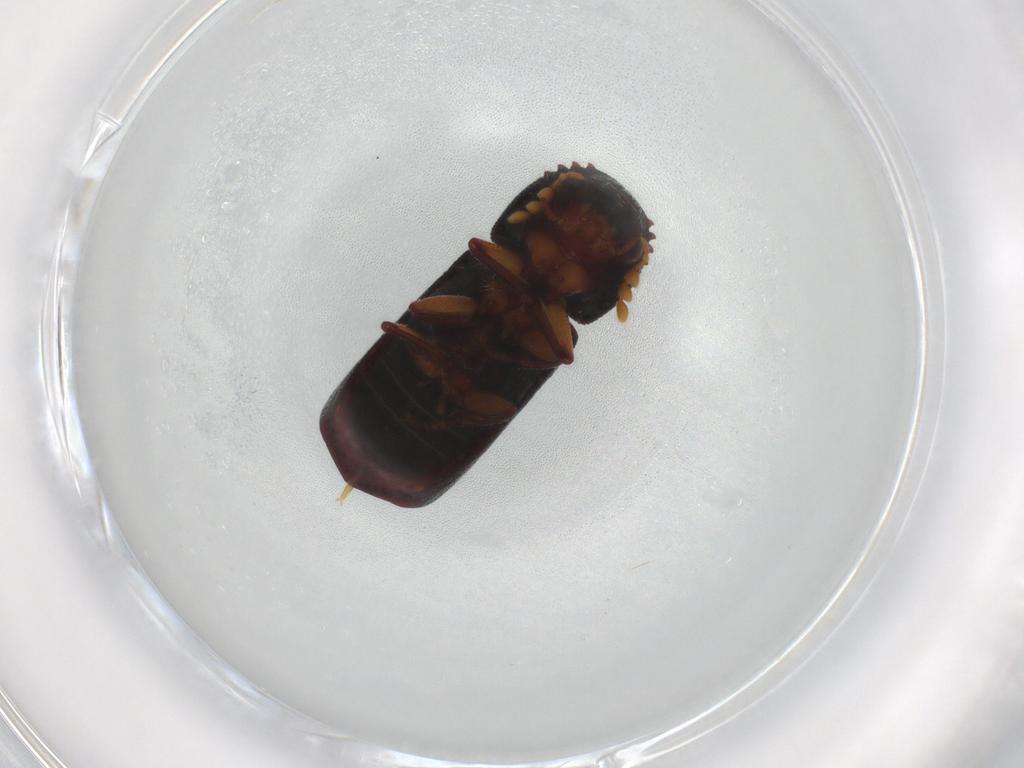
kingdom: Animalia
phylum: Arthropoda
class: Insecta
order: Coleoptera
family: Bostrichidae
